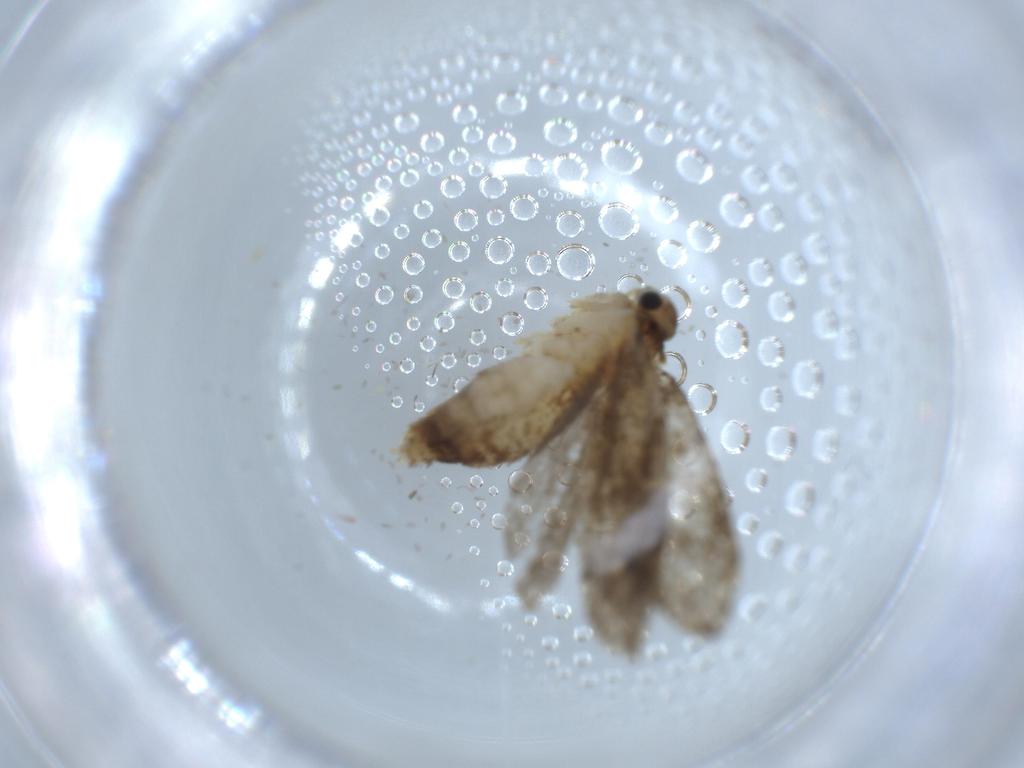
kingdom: Animalia
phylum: Arthropoda
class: Insecta
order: Lepidoptera
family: Tineidae
